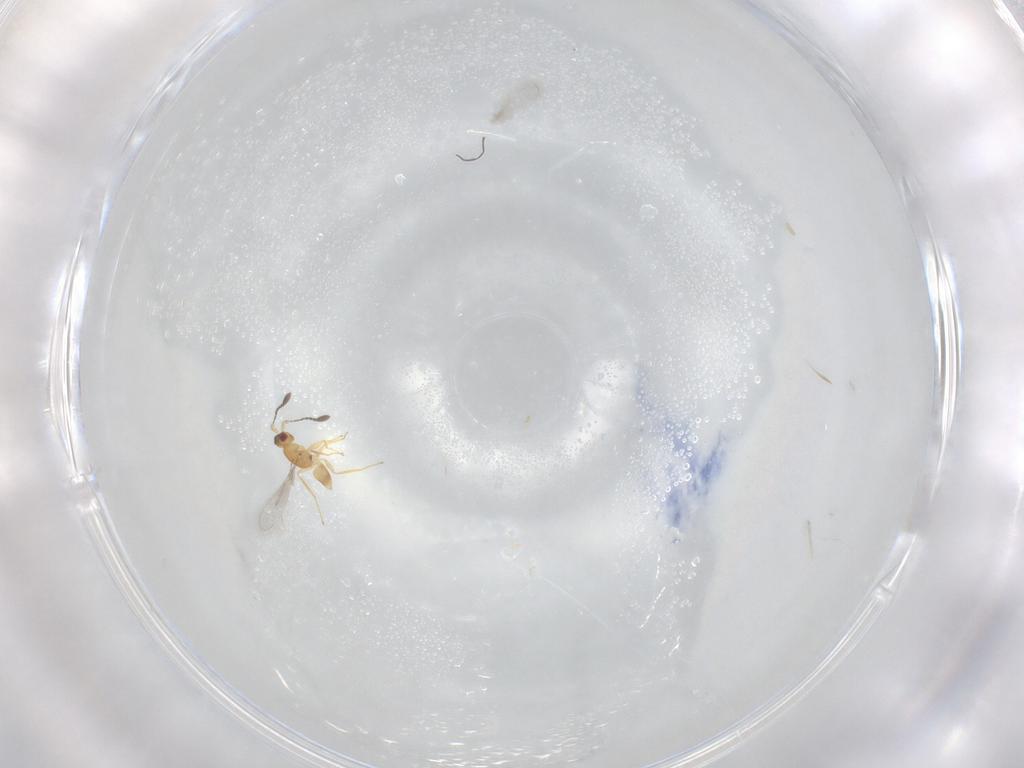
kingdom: Animalia
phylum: Arthropoda
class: Insecta
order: Hymenoptera
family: Mymaridae
